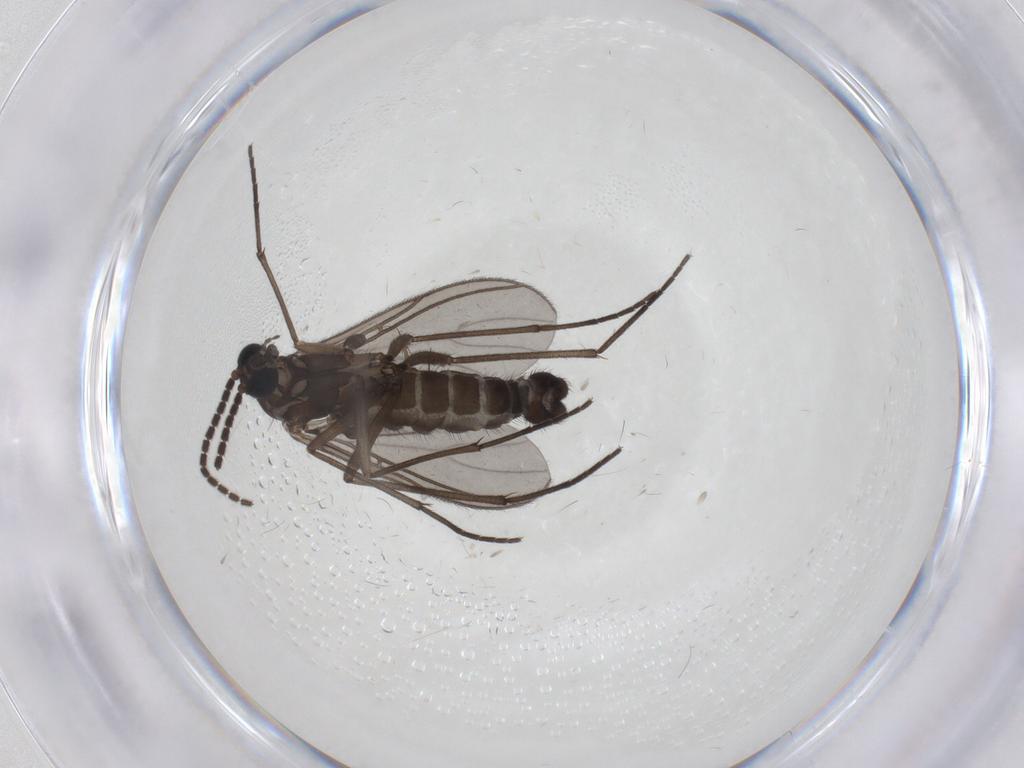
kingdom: Animalia
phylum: Arthropoda
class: Insecta
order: Diptera
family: Sciaridae
